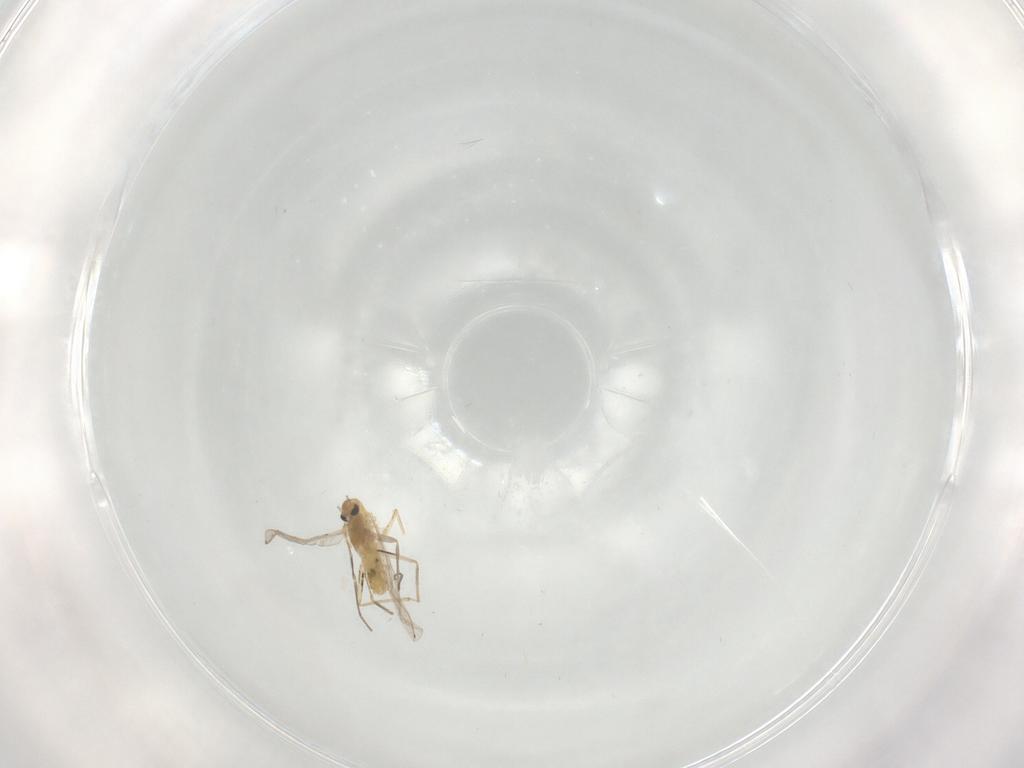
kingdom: Animalia
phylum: Arthropoda
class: Insecta
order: Diptera
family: Chironomidae
